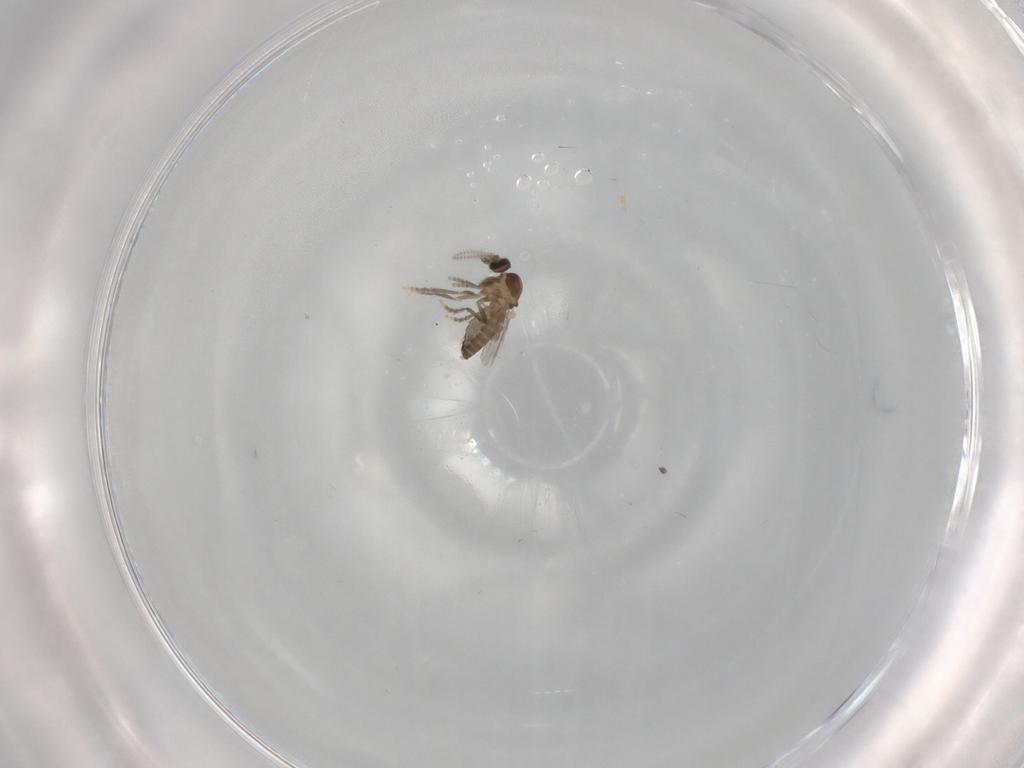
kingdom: Animalia
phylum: Arthropoda
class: Insecta
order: Diptera
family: Ceratopogonidae
